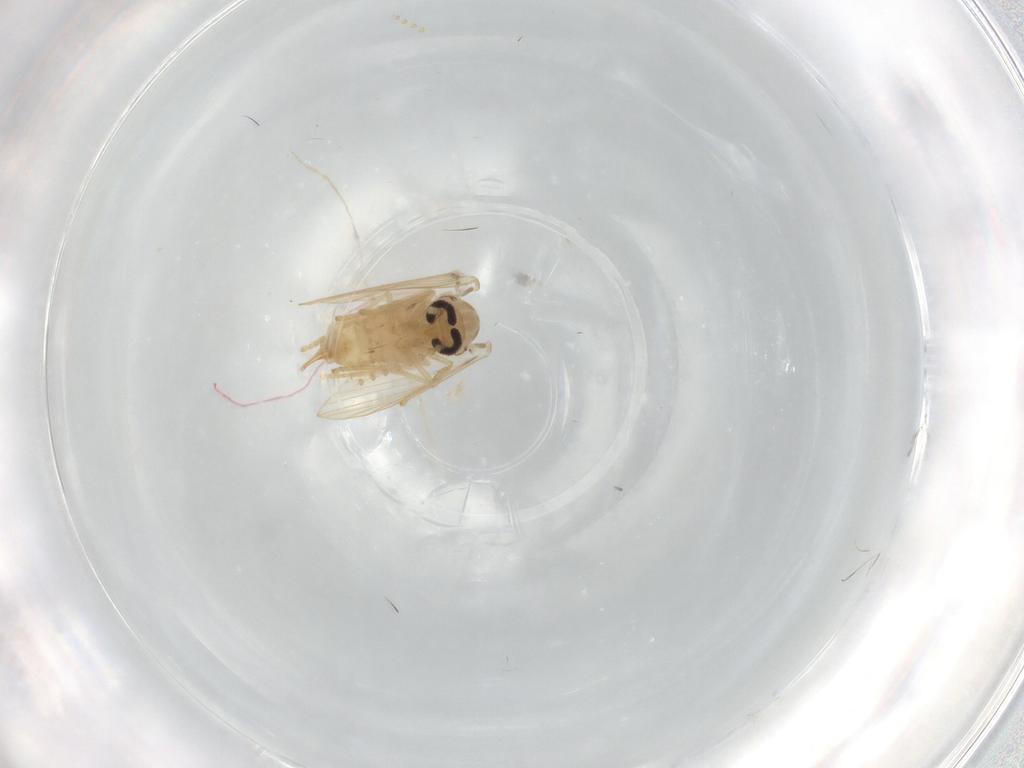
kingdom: Animalia
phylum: Arthropoda
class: Insecta
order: Diptera
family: Psychodidae
